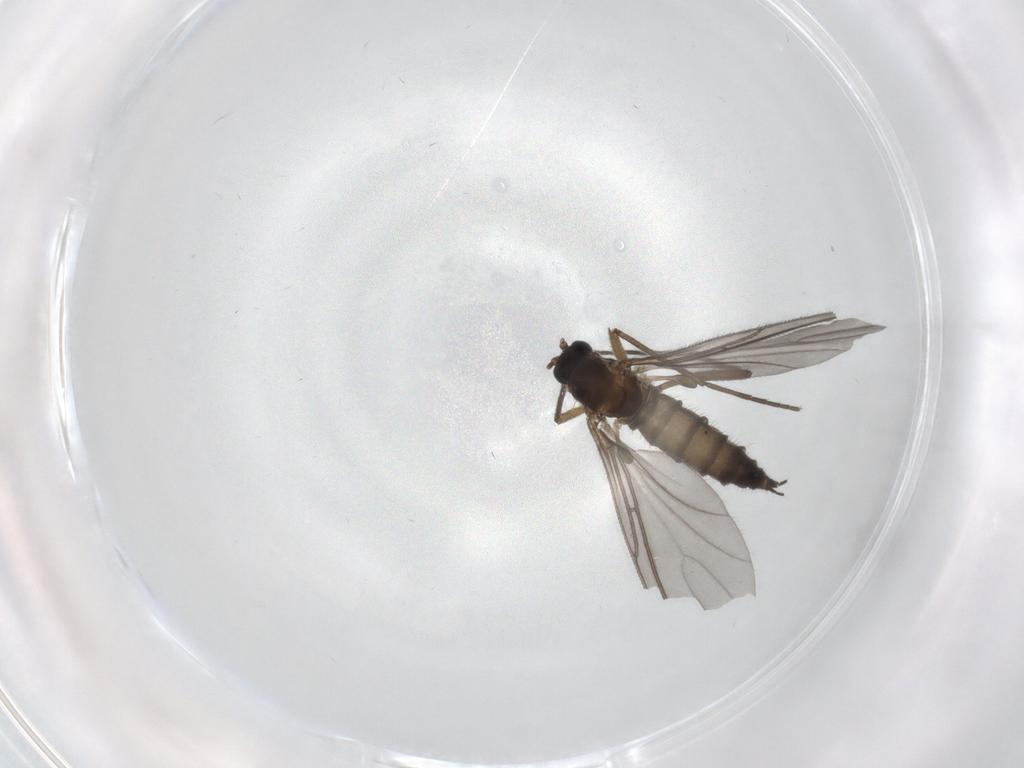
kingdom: Animalia
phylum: Arthropoda
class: Insecta
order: Diptera
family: Sciaridae
